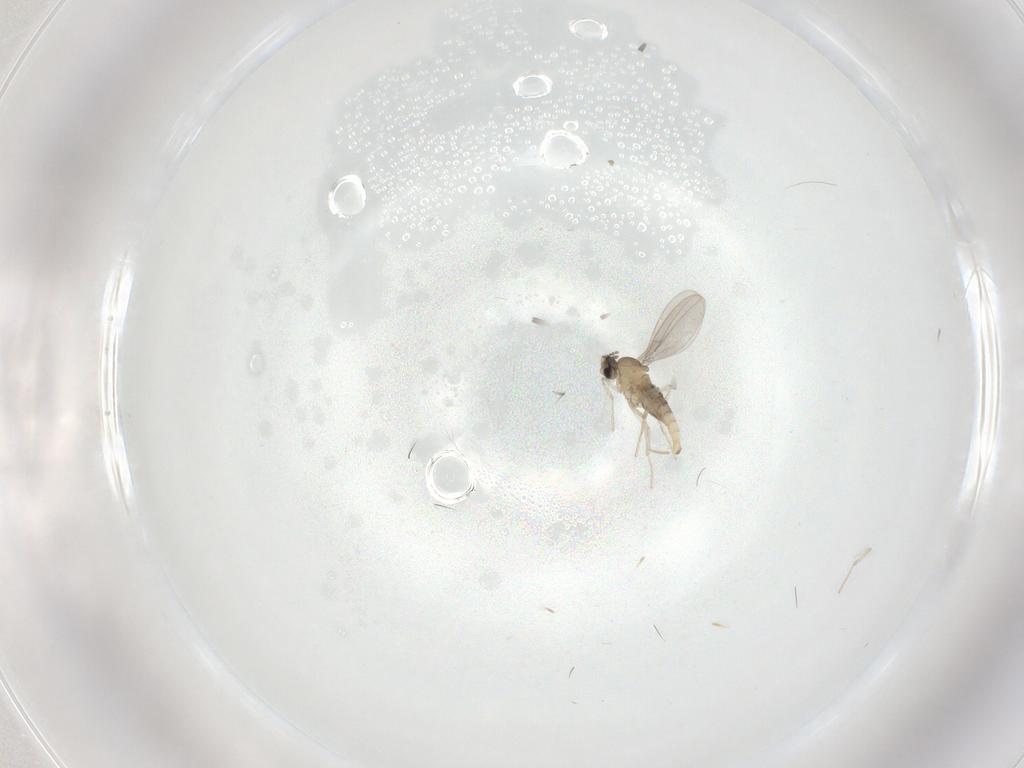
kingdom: Animalia
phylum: Arthropoda
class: Insecta
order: Diptera
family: Cecidomyiidae
